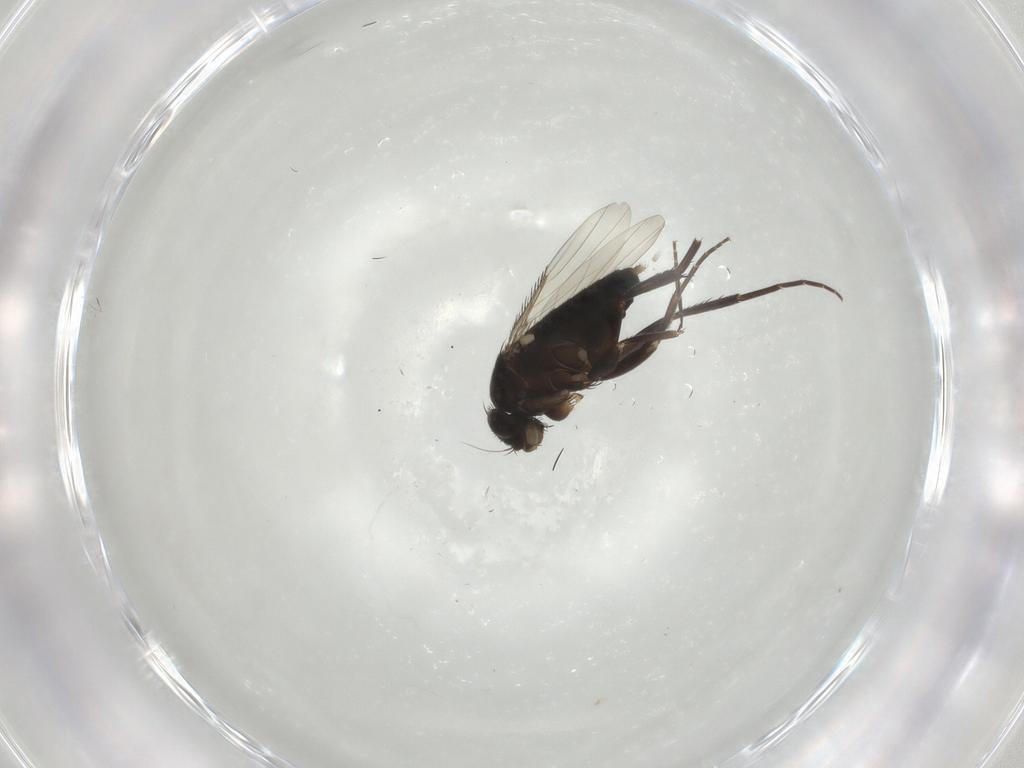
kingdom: Animalia
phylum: Arthropoda
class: Insecta
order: Diptera
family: Phoridae
